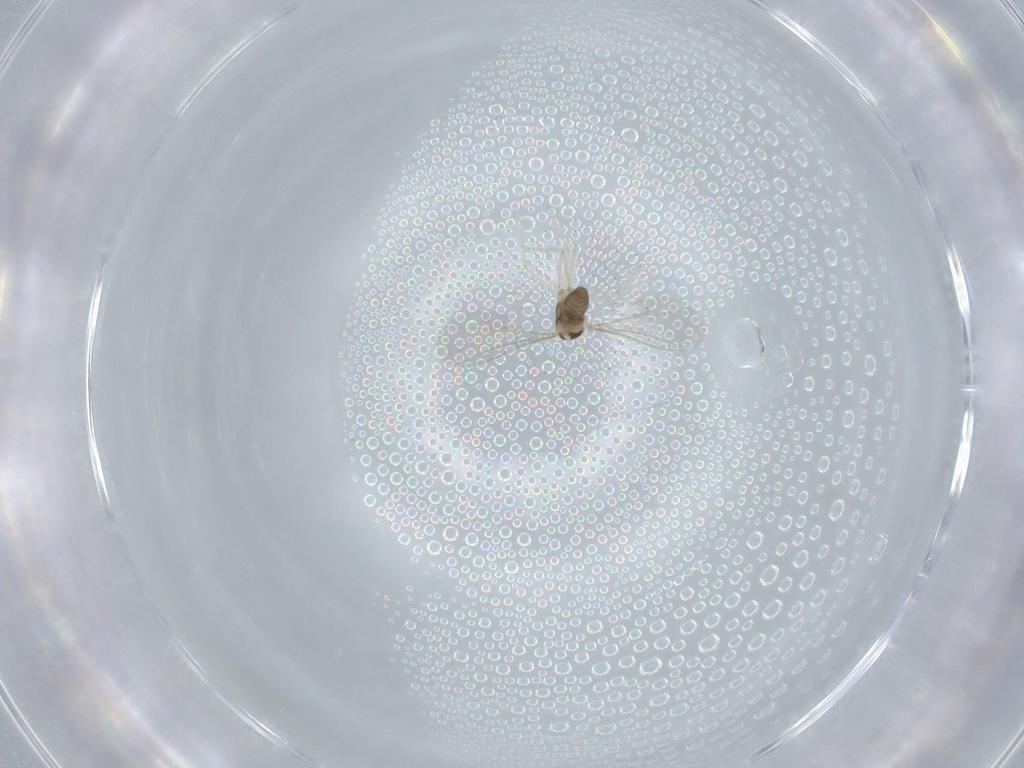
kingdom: Animalia
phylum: Arthropoda
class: Insecta
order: Diptera
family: Cecidomyiidae
